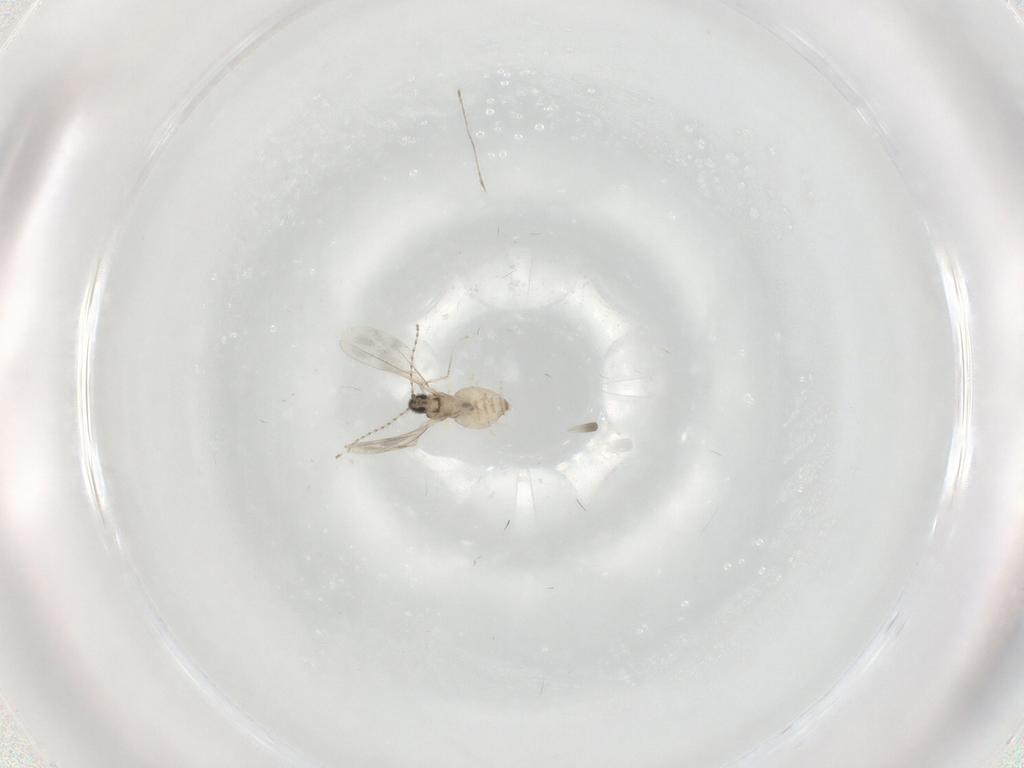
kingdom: Animalia
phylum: Arthropoda
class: Insecta
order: Diptera
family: Cecidomyiidae
